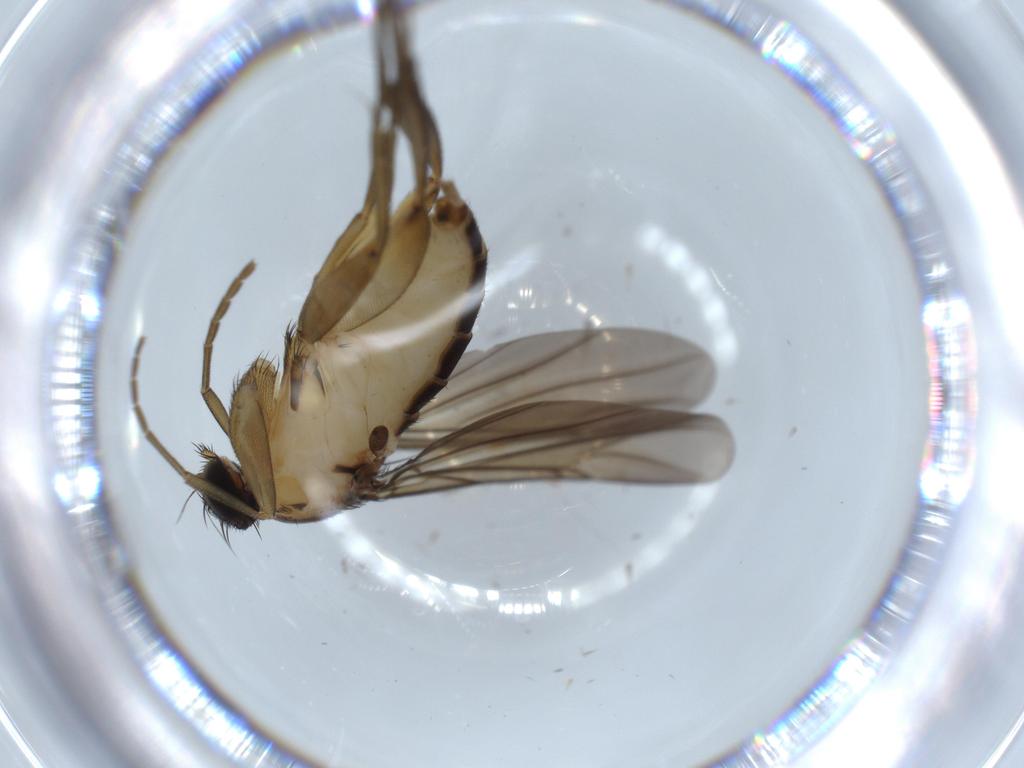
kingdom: Animalia
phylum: Arthropoda
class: Insecta
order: Diptera
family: Phoridae
